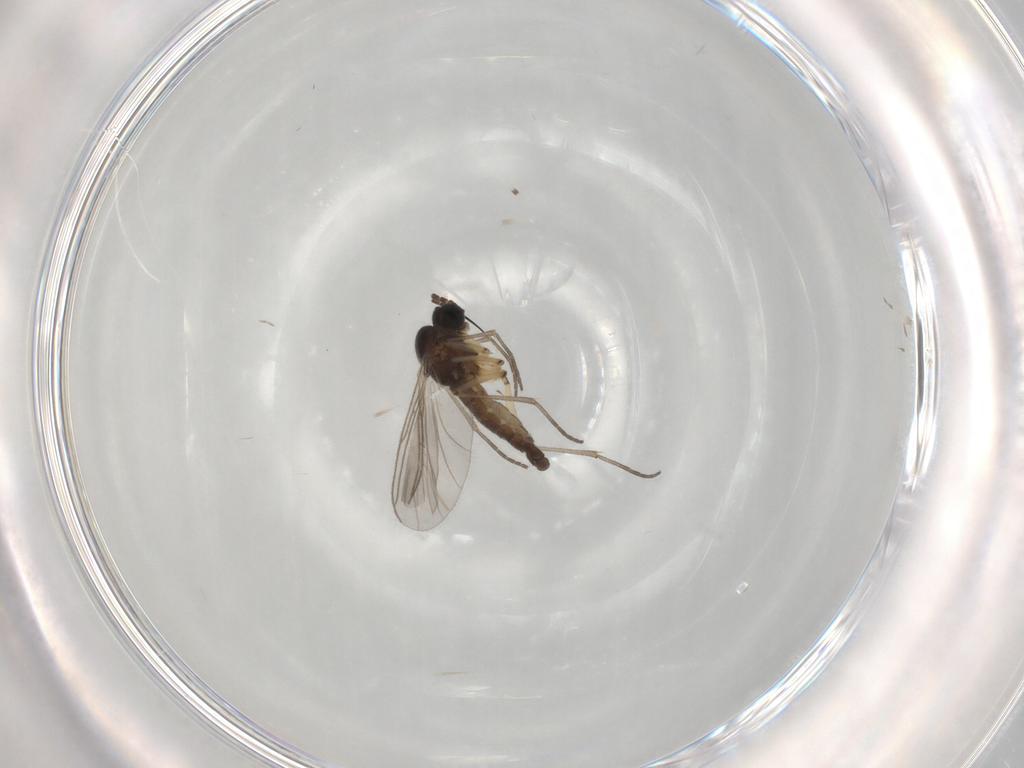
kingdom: Animalia
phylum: Arthropoda
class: Insecta
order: Diptera
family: Sciaridae
